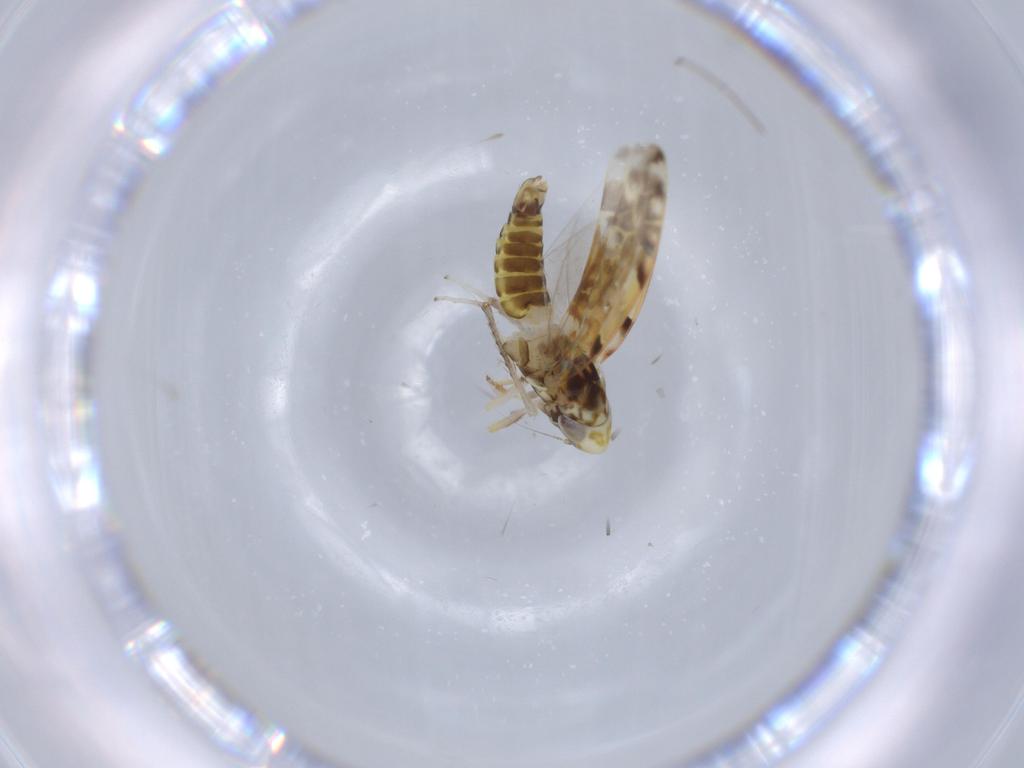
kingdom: Animalia
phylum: Arthropoda
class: Insecta
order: Hemiptera
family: Cicadellidae
